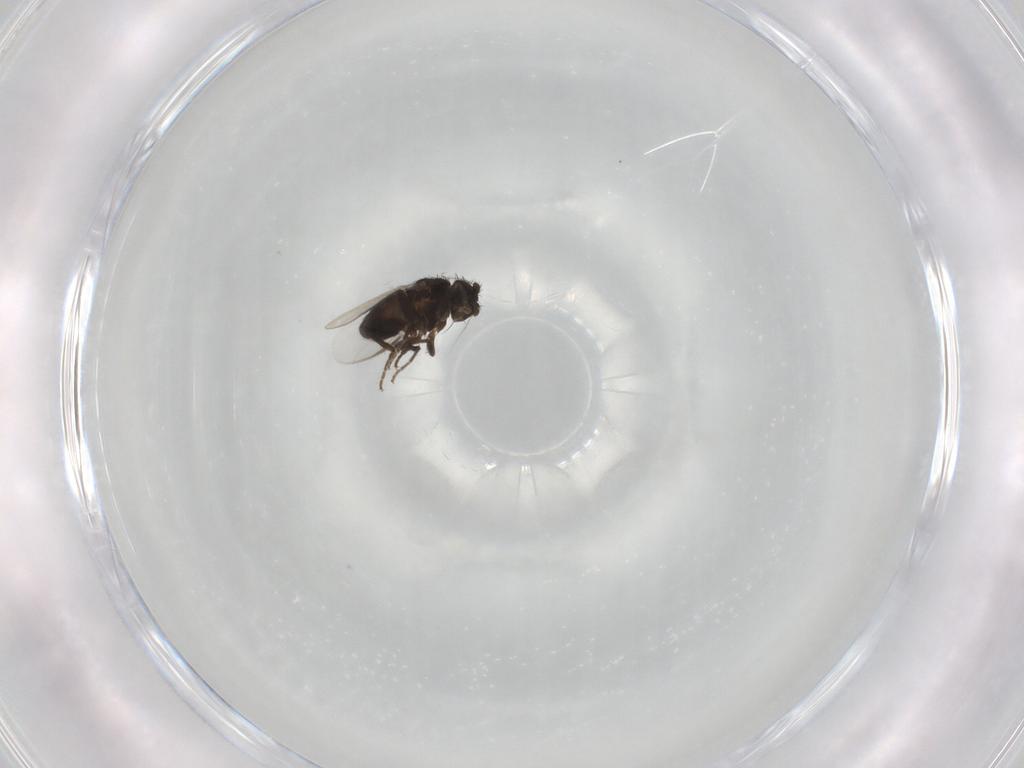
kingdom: Animalia
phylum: Arthropoda
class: Insecta
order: Diptera
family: Sphaeroceridae
